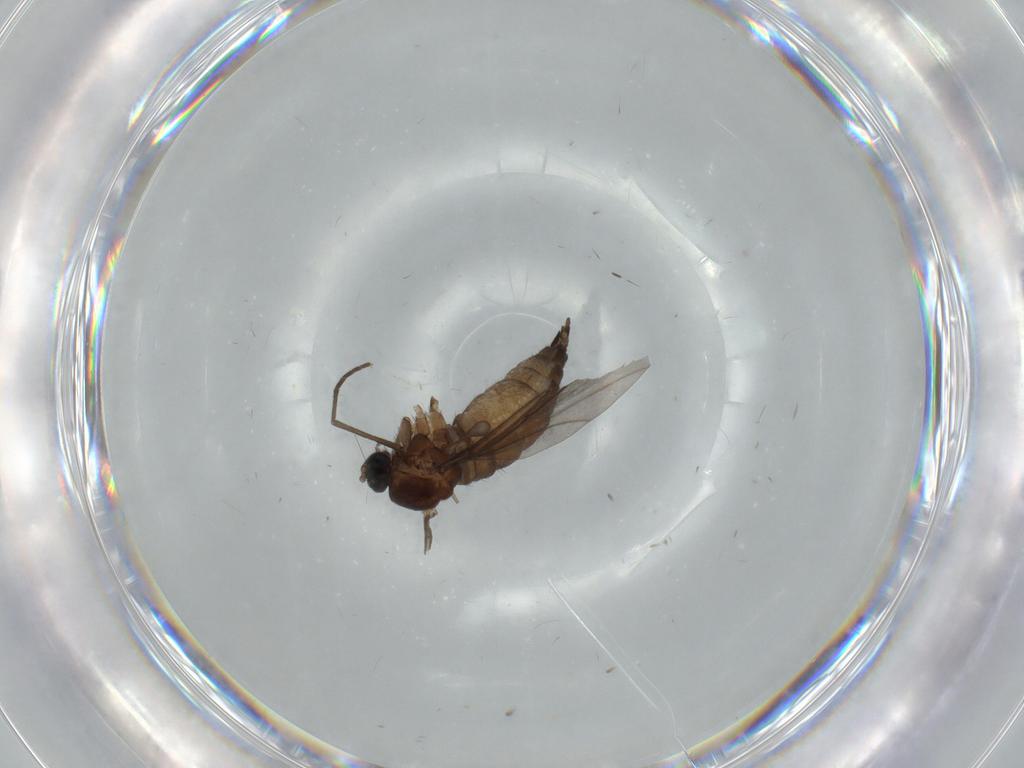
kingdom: Animalia
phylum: Arthropoda
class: Insecta
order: Diptera
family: Sciaridae
